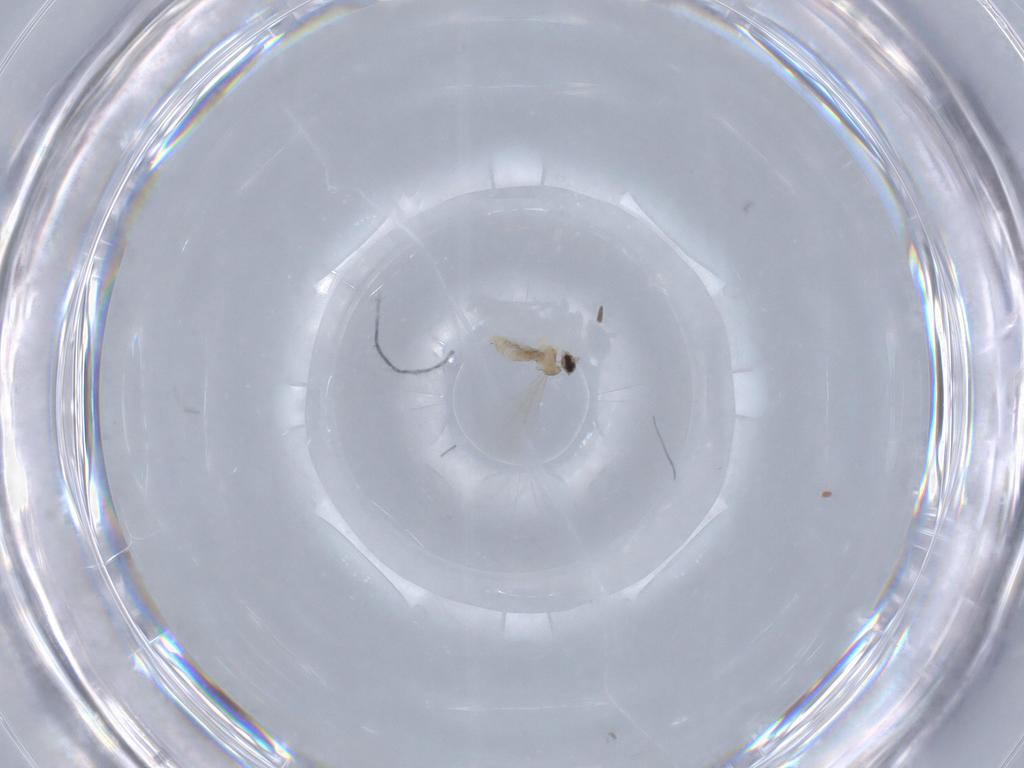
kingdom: Animalia
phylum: Arthropoda
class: Insecta
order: Diptera
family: Cecidomyiidae
